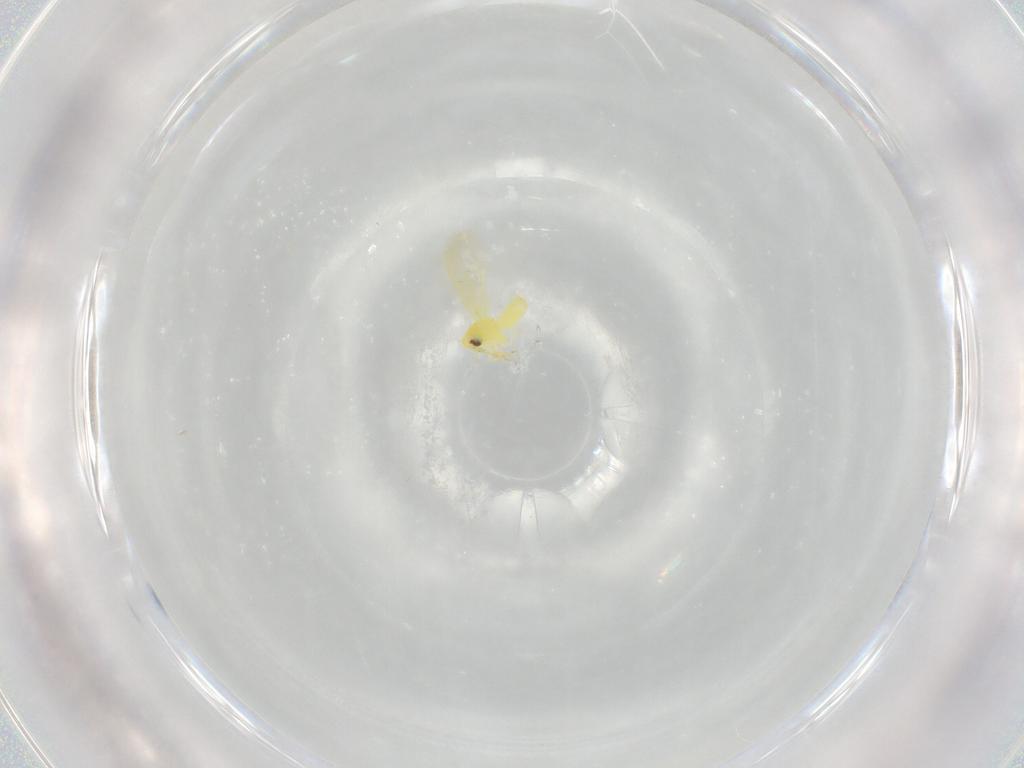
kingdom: Animalia
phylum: Arthropoda
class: Insecta
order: Hemiptera
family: Aleyrodidae
